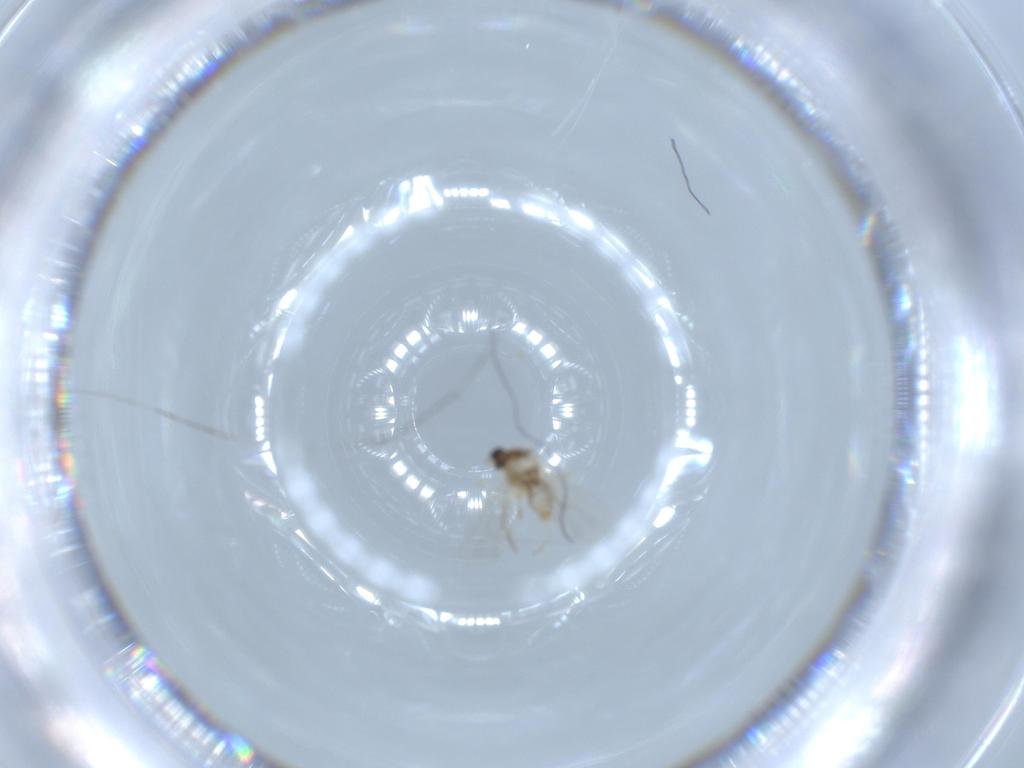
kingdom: Animalia
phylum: Arthropoda
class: Insecta
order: Diptera
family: Cecidomyiidae
